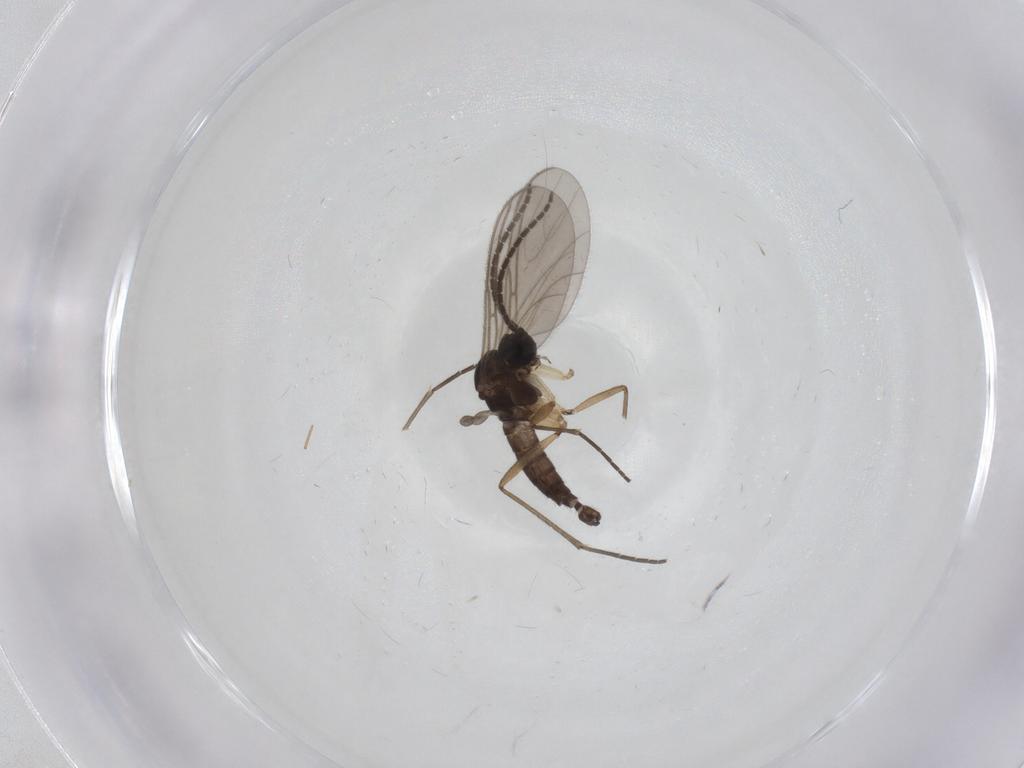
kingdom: Animalia
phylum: Arthropoda
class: Insecta
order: Diptera
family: Sciaridae
